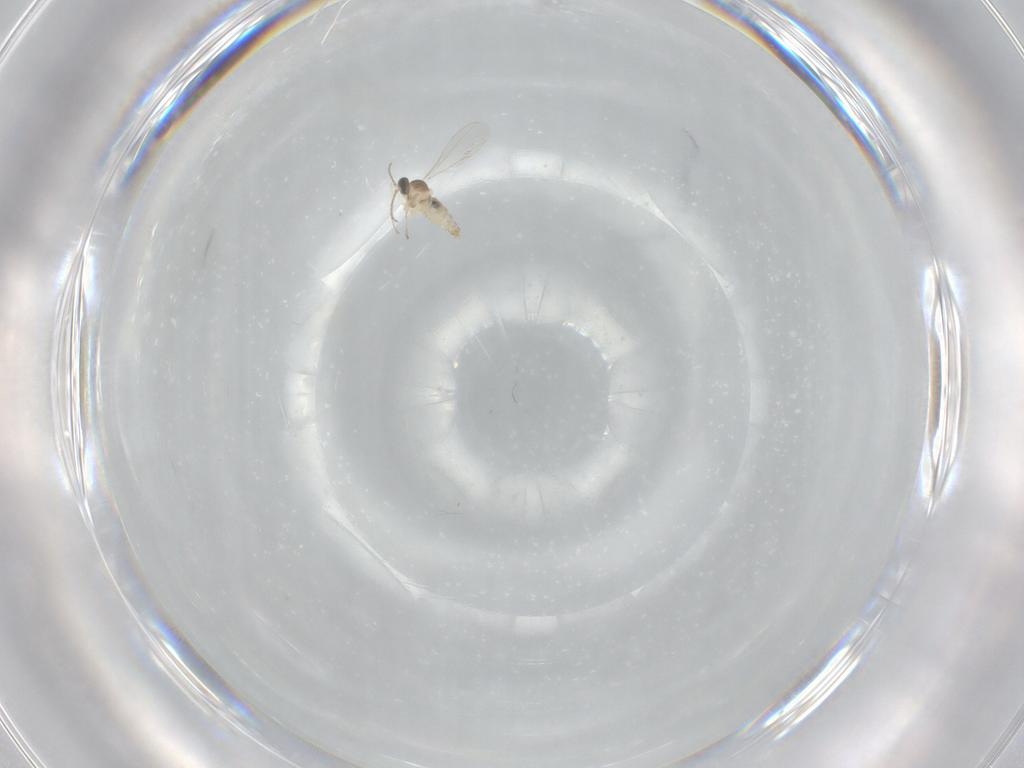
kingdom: Animalia
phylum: Arthropoda
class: Insecta
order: Diptera
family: Cecidomyiidae
